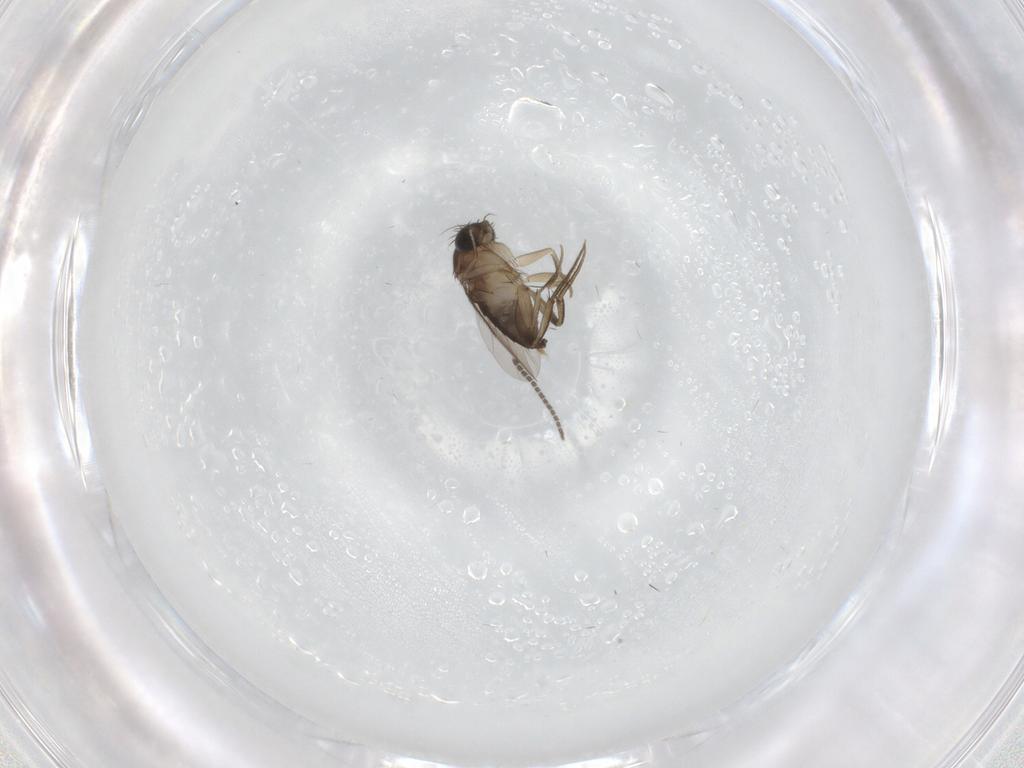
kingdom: Animalia
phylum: Arthropoda
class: Insecta
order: Diptera
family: Phoridae
